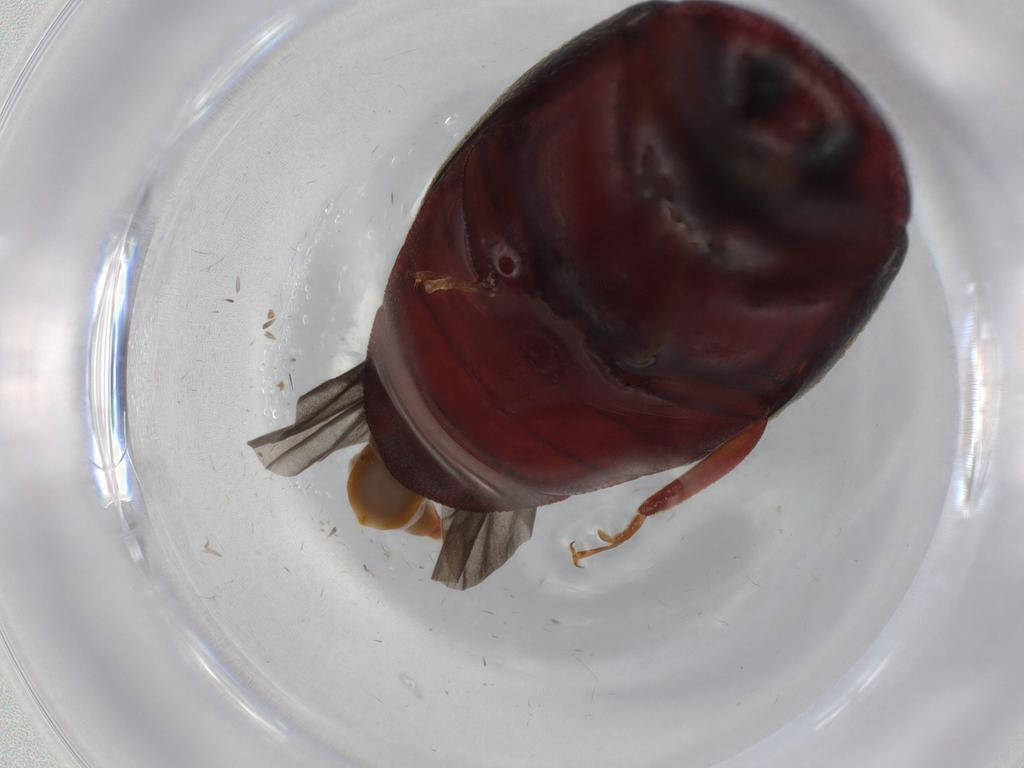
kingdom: Animalia
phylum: Arthropoda
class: Insecta
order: Coleoptera
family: Chelonariidae
